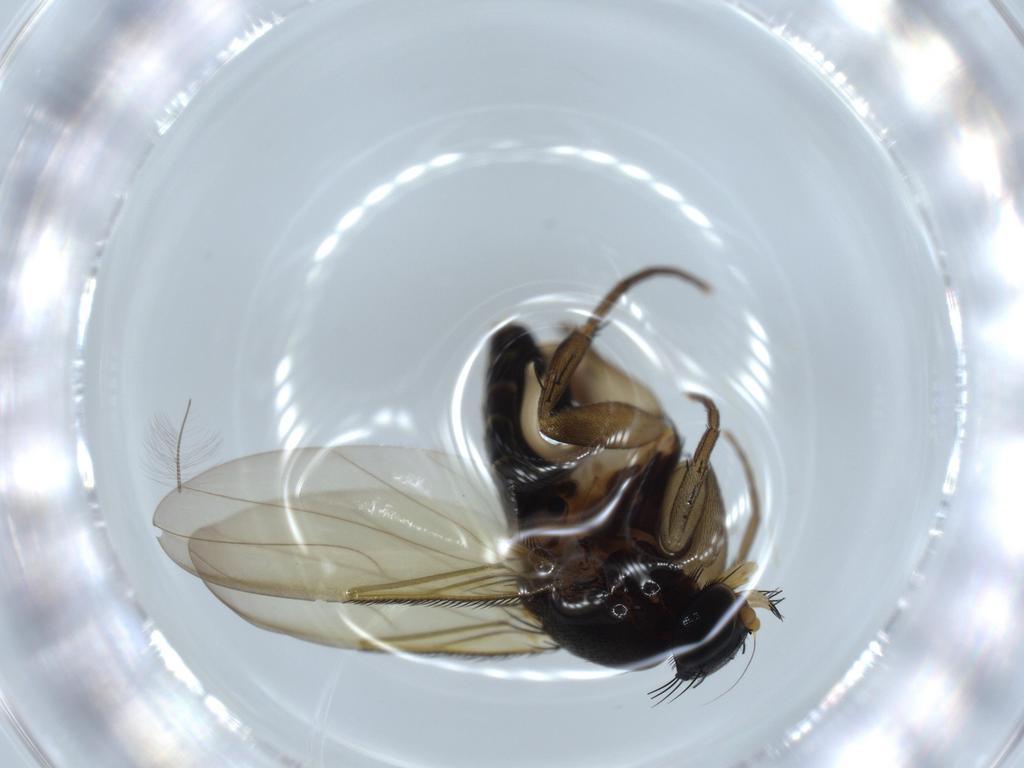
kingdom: Animalia
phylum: Arthropoda
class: Insecta
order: Diptera
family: Phoridae
